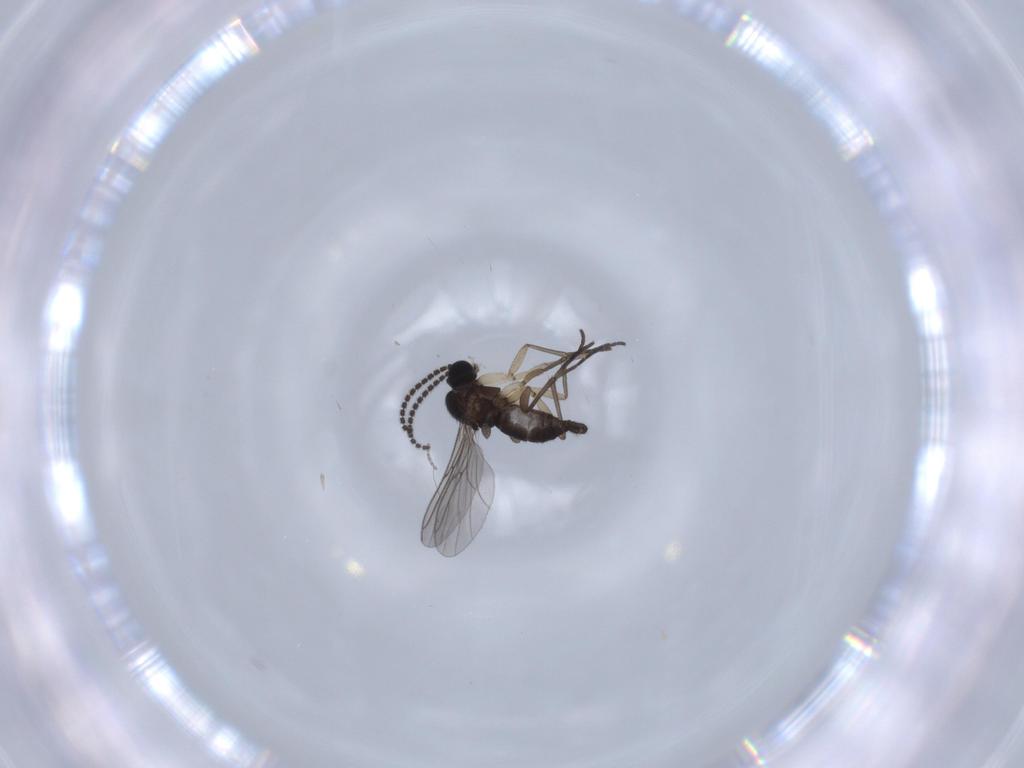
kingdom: Animalia
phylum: Arthropoda
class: Insecta
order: Diptera
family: Sciaridae
